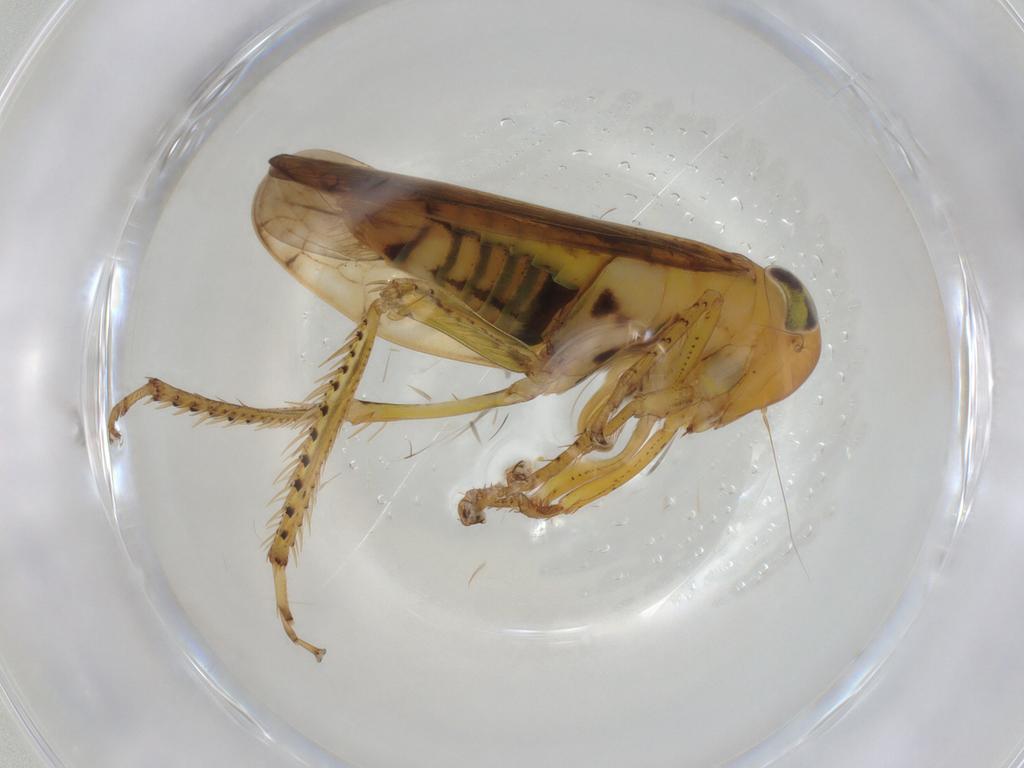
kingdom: Animalia
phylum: Arthropoda
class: Insecta
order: Hemiptera
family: Cicadellidae
